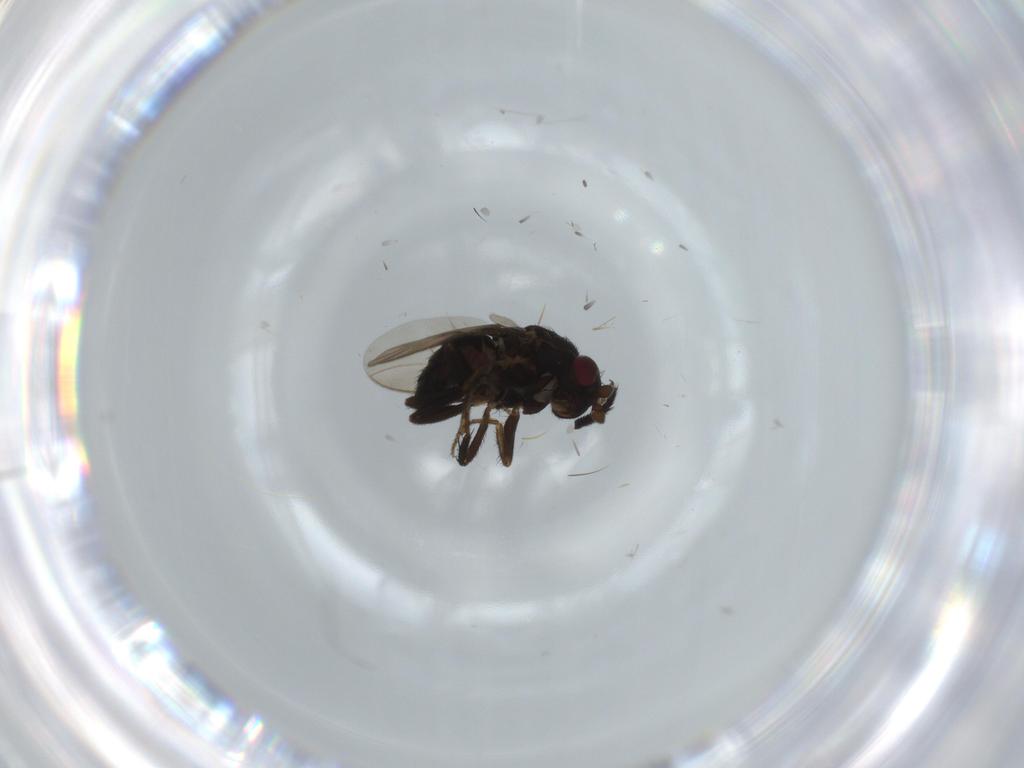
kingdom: Animalia
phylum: Arthropoda
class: Insecta
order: Diptera
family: Sphaeroceridae
